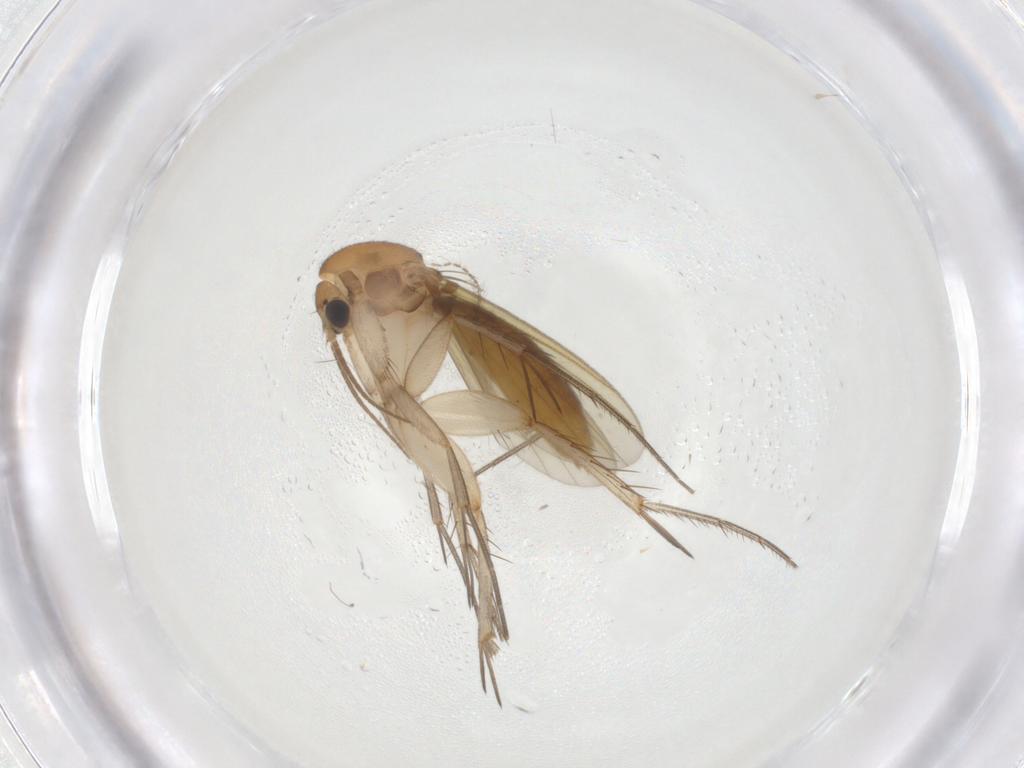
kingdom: Animalia
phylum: Arthropoda
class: Insecta
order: Diptera
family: Mycetophilidae
